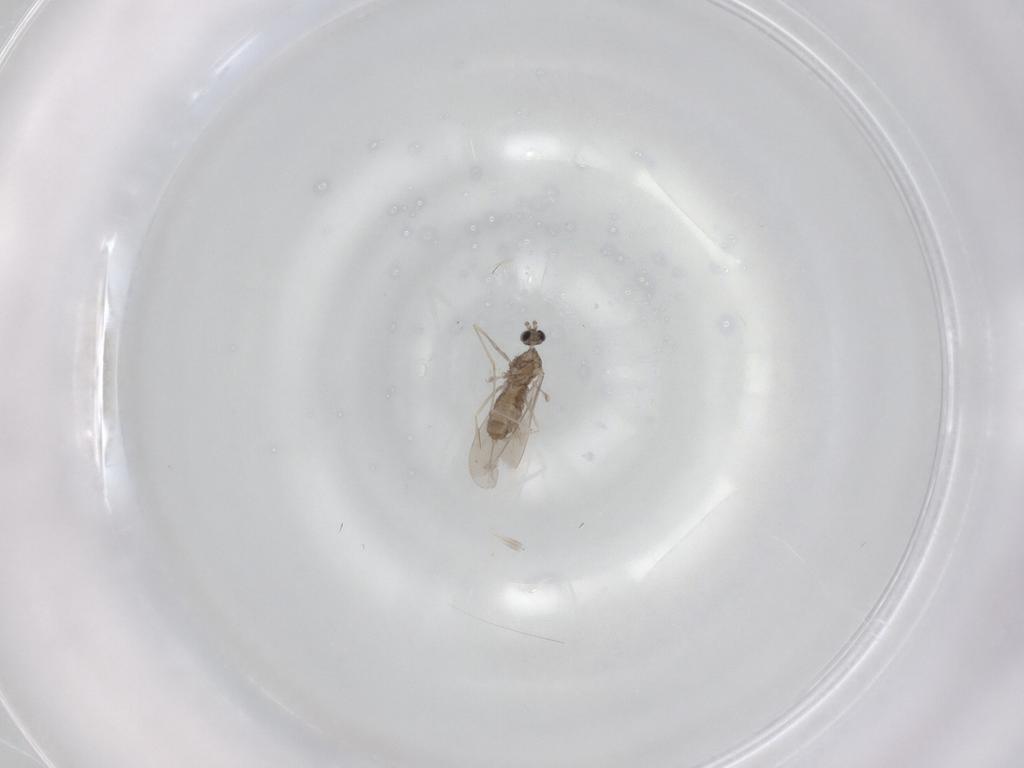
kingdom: Animalia
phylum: Arthropoda
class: Insecta
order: Diptera
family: Cecidomyiidae
